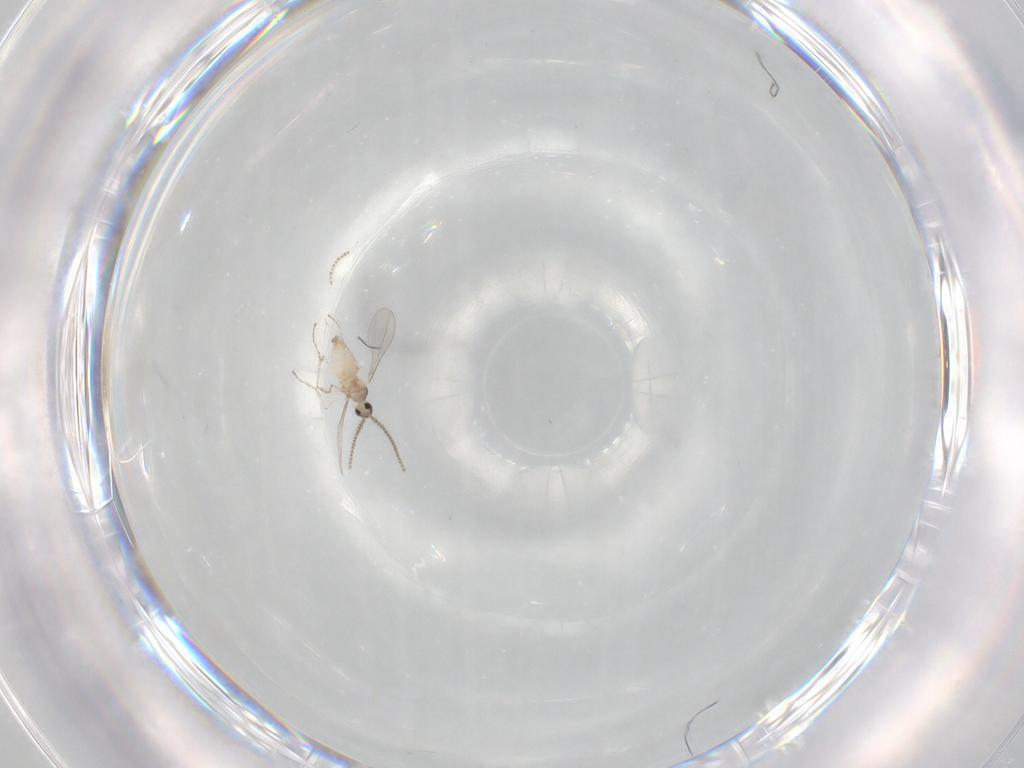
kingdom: Animalia
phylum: Arthropoda
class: Insecta
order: Diptera
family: Cecidomyiidae
